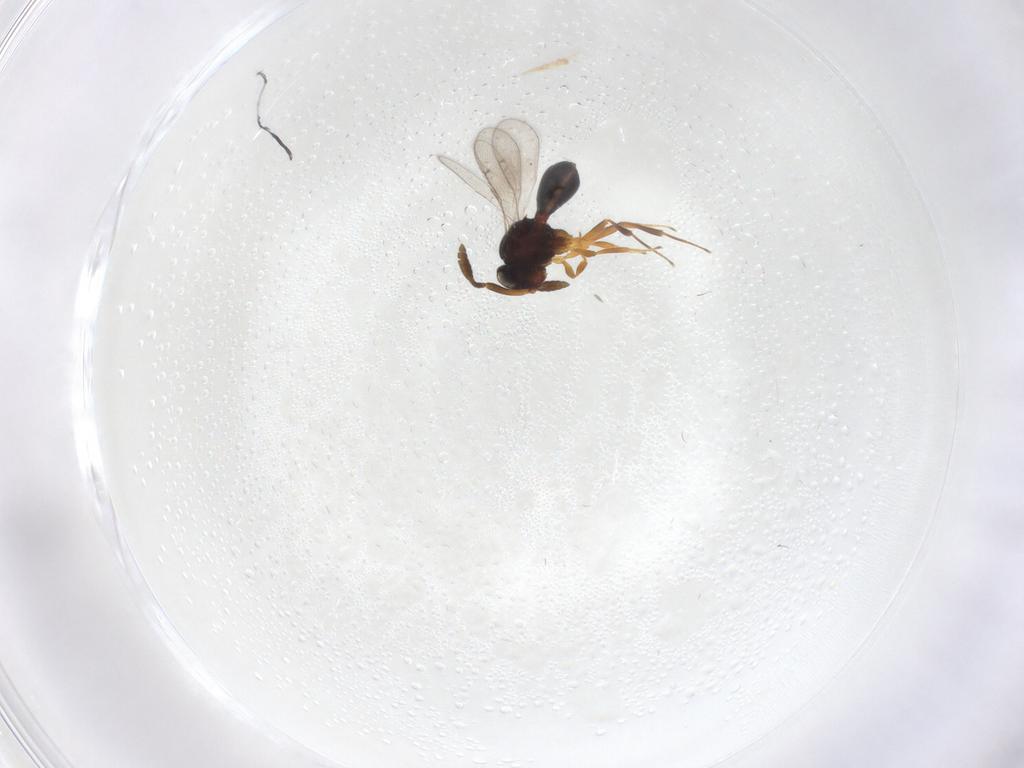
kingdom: Animalia
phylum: Arthropoda
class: Insecta
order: Hymenoptera
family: Scelionidae
